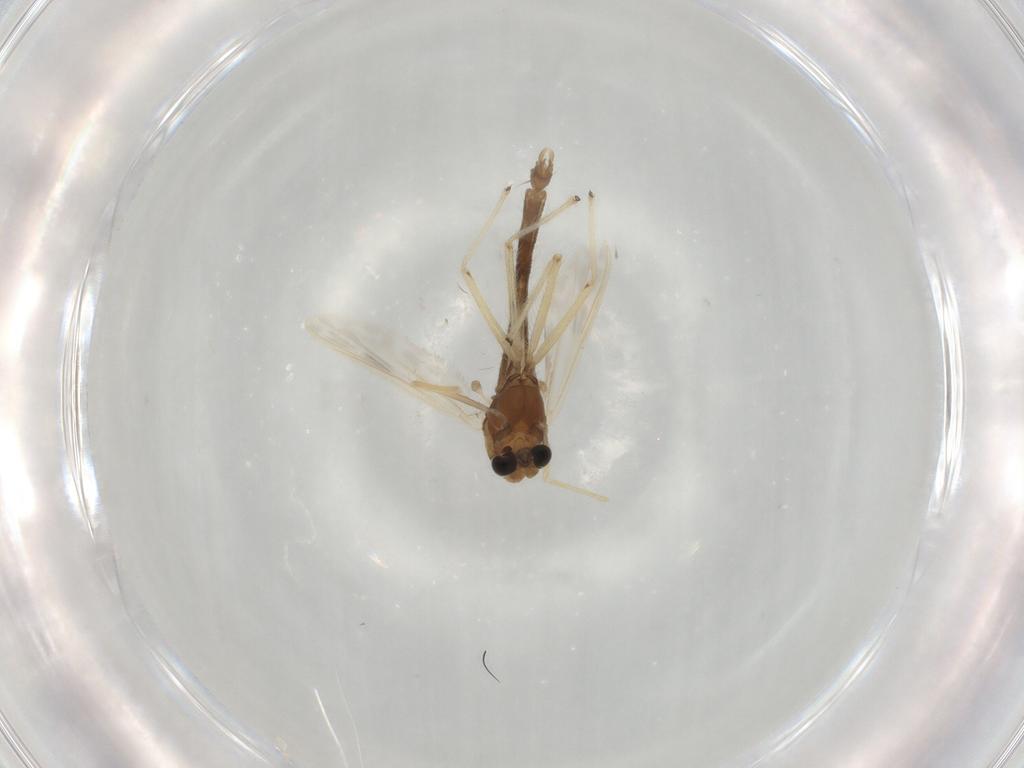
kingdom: Animalia
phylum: Arthropoda
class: Insecta
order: Diptera
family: Chironomidae
